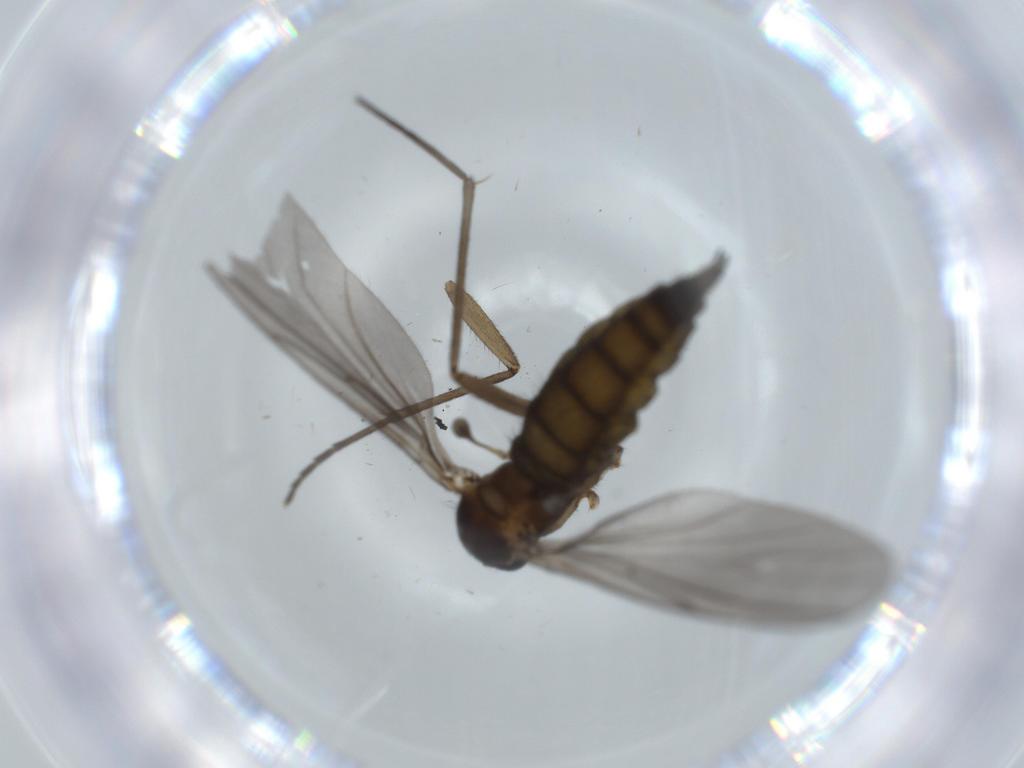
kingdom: Animalia
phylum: Arthropoda
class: Insecta
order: Diptera
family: Sciaridae
